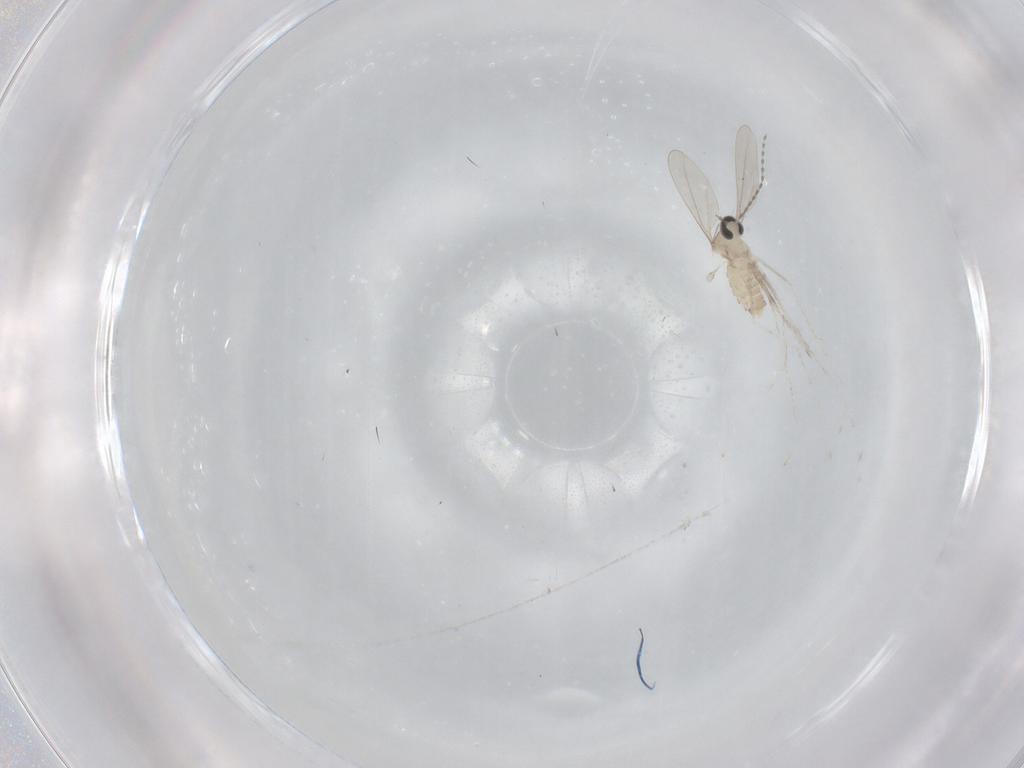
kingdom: Animalia
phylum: Arthropoda
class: Insecta
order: Diptera
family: Cecidomyiidae
